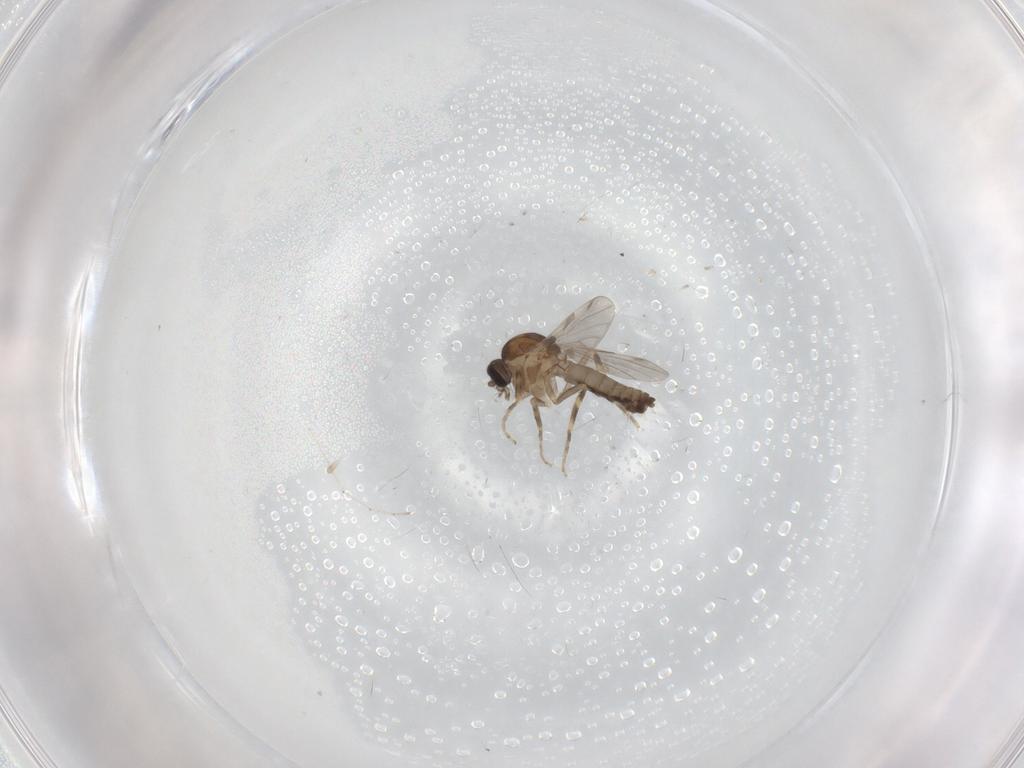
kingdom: Animalia
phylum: Arthropoda
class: Insecta
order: Diptera
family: Ceratopogonidae
